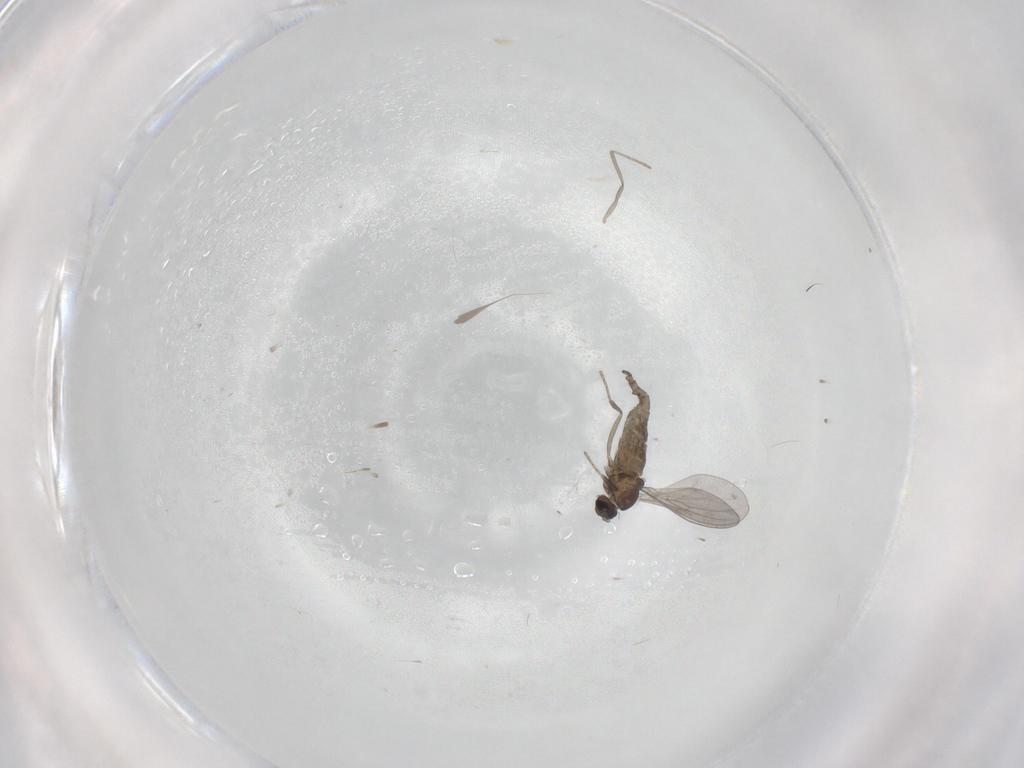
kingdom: Animalia
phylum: Arthropoda
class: Insecta
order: Diptera
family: Cecidomyiidae
